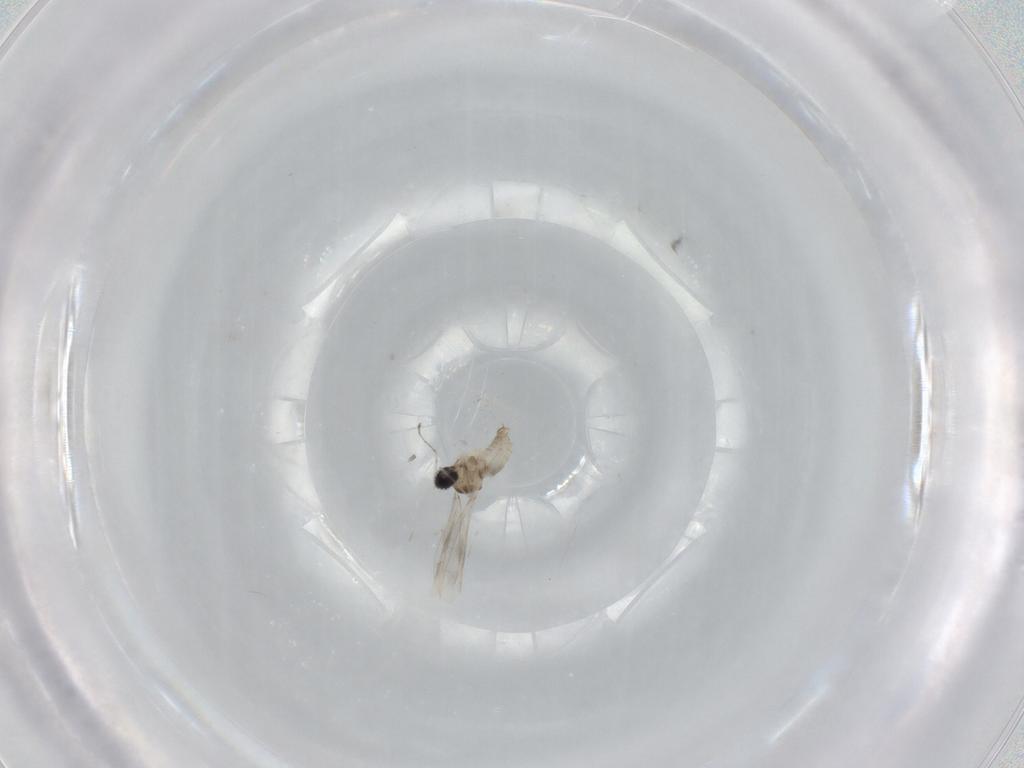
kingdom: Animalia
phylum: Arthropoda
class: Insecta
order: Diptera
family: Cecidomyiidae
